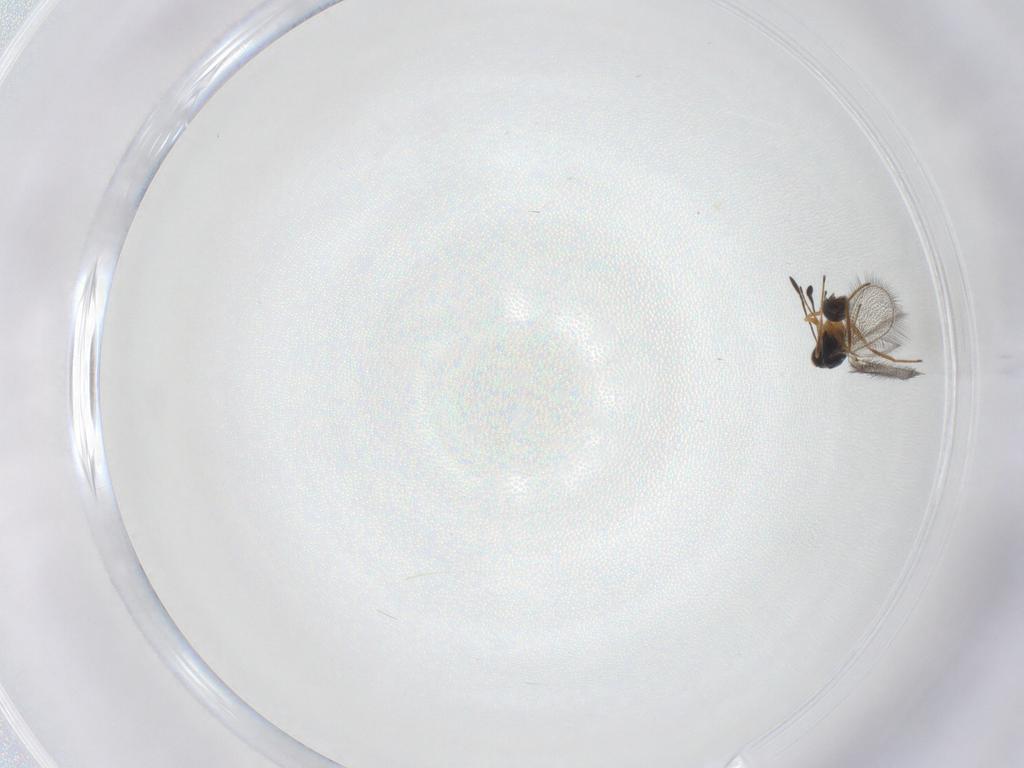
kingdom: Animalia
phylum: Arthropoda
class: Insecta
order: Hymenoptera
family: Mymaridae
